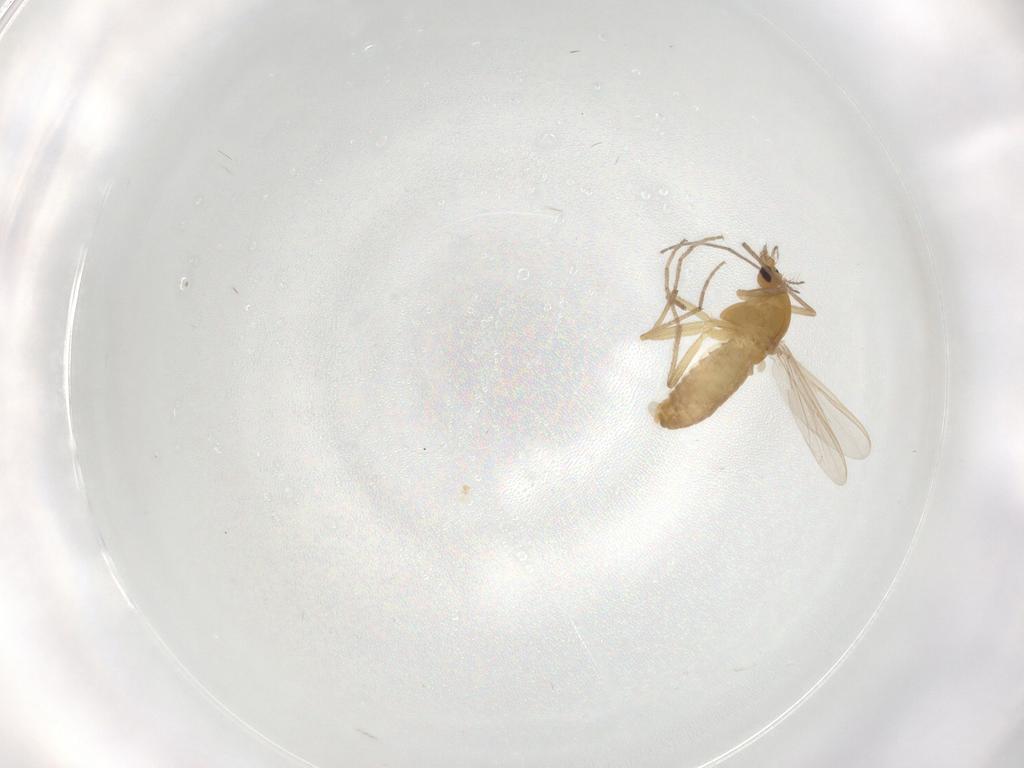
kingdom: Animalia
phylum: Arthropoda
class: Insecta
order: Diptera
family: Chironomidae
